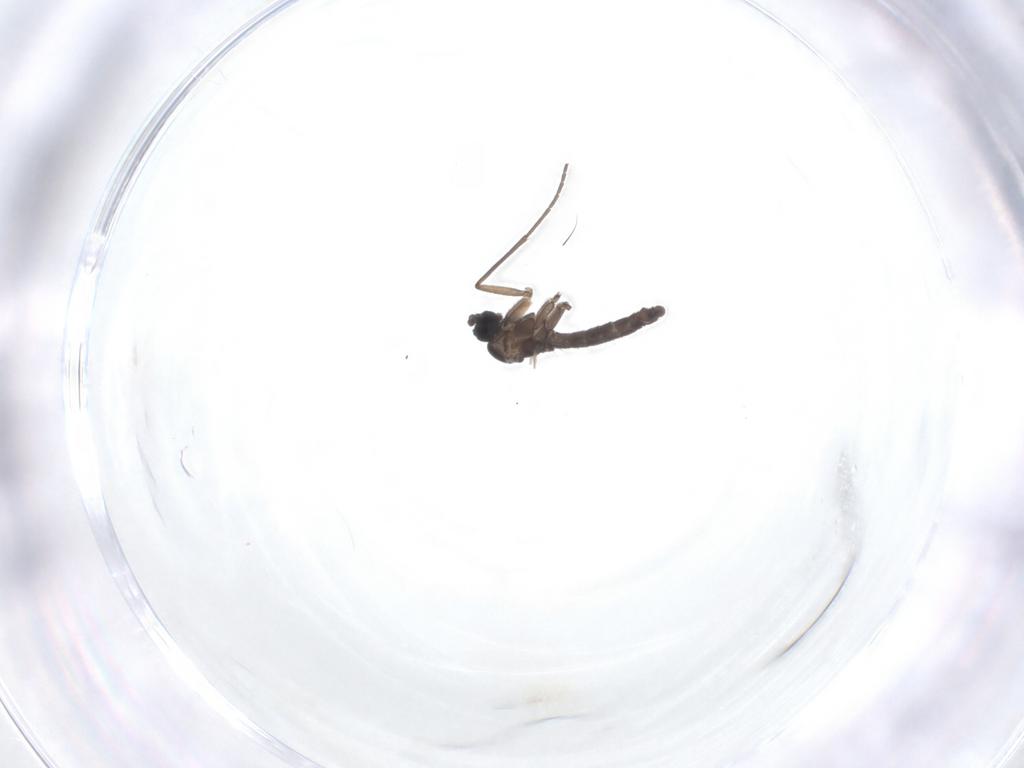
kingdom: Animalia
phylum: Arthropoda
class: Insecta
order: Diptera
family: Sciaridae
